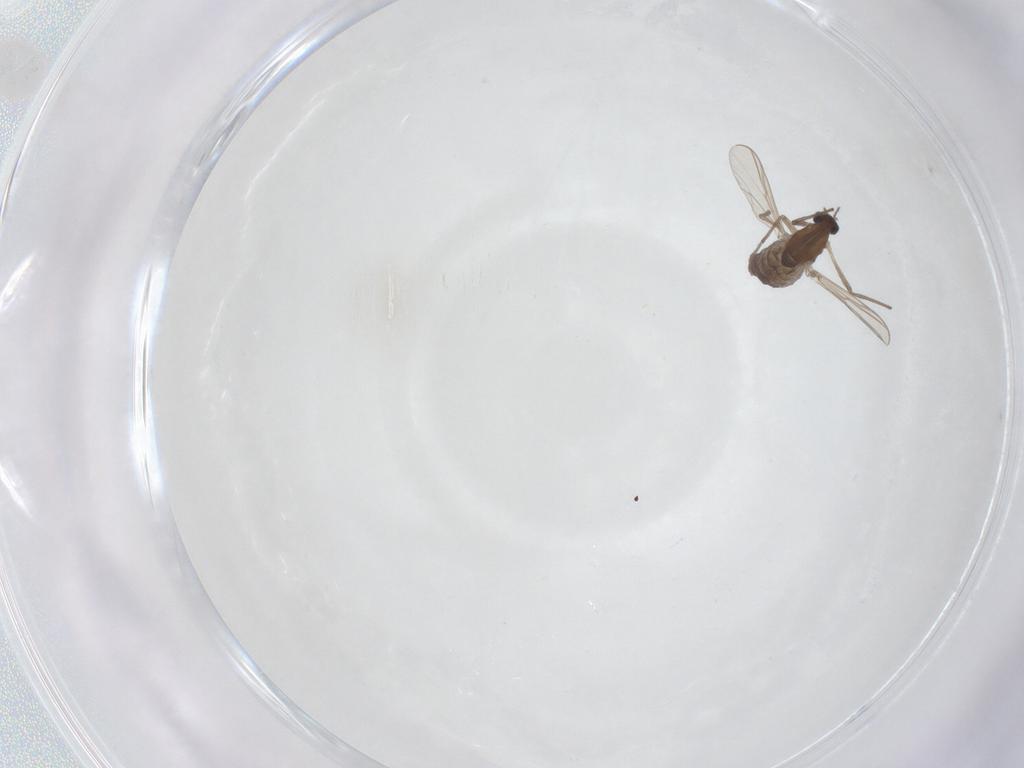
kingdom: Animalia
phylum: Arthropoda
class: Insecta
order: Diptera
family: Chironomidae
